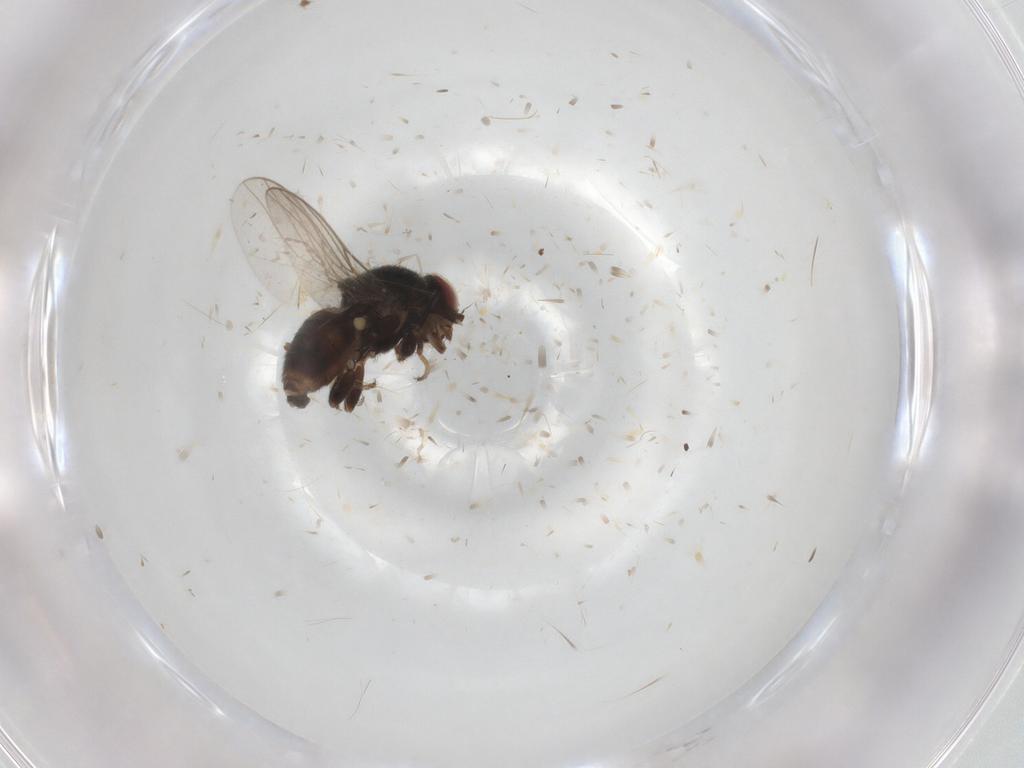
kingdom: Animalia
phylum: Arthropoda
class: Insecta
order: Diptera
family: Chloropidae
